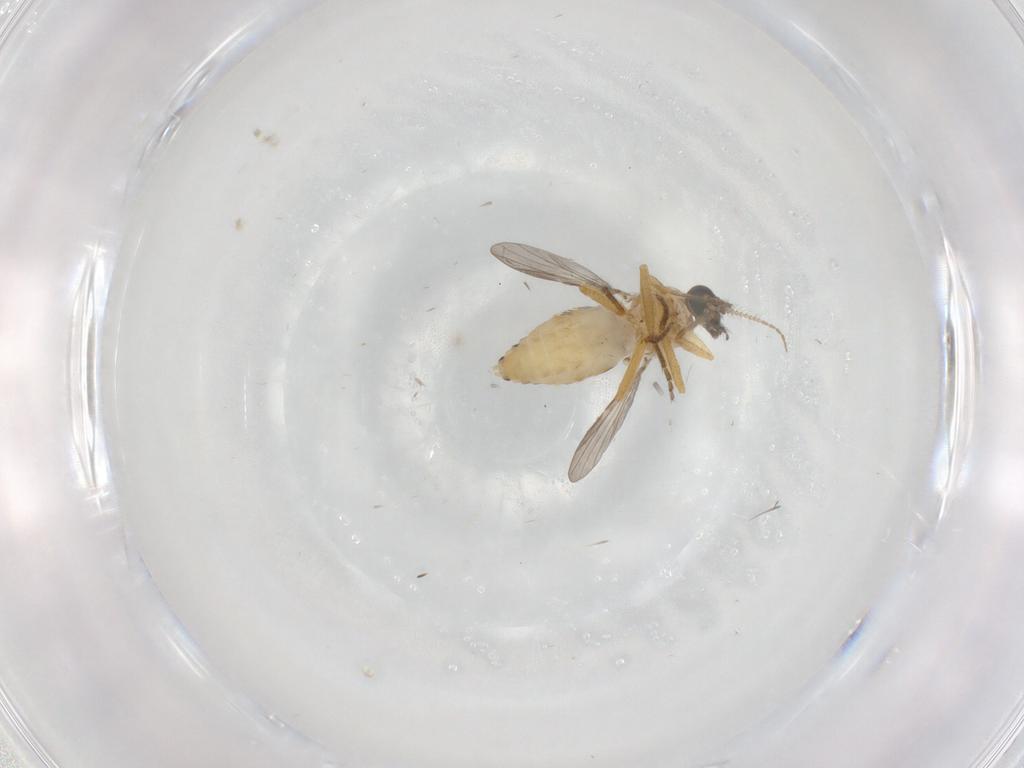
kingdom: Animalia
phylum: Arthropoda
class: Insecta
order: Diptera
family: Ceratopogonidae
